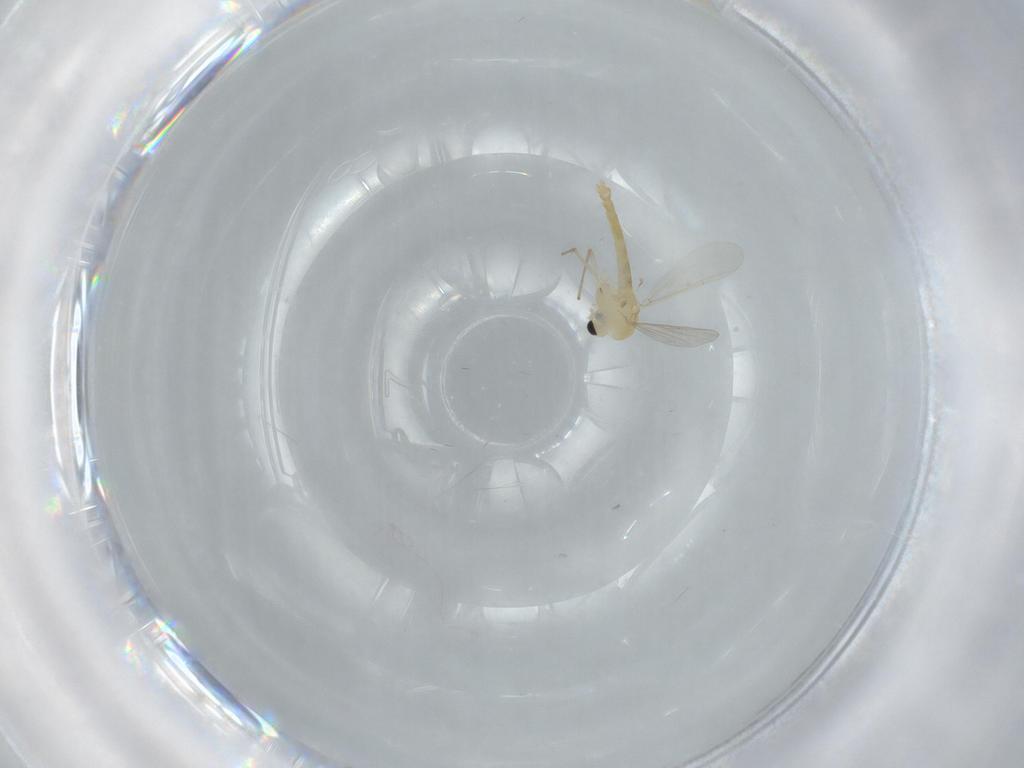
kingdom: Animalia
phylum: Arthropoda
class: Insecta
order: Diptera
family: Chironomidae
